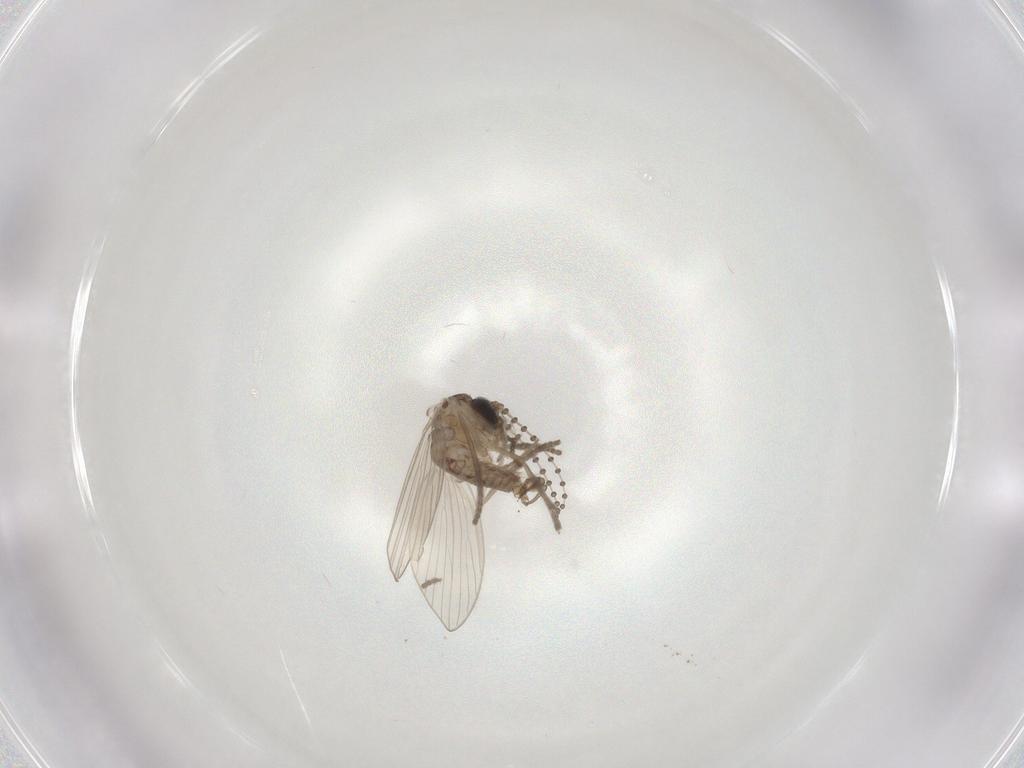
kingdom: Animalia
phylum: Arthropoda
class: Insecta
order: Diptera
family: Psychodidae
